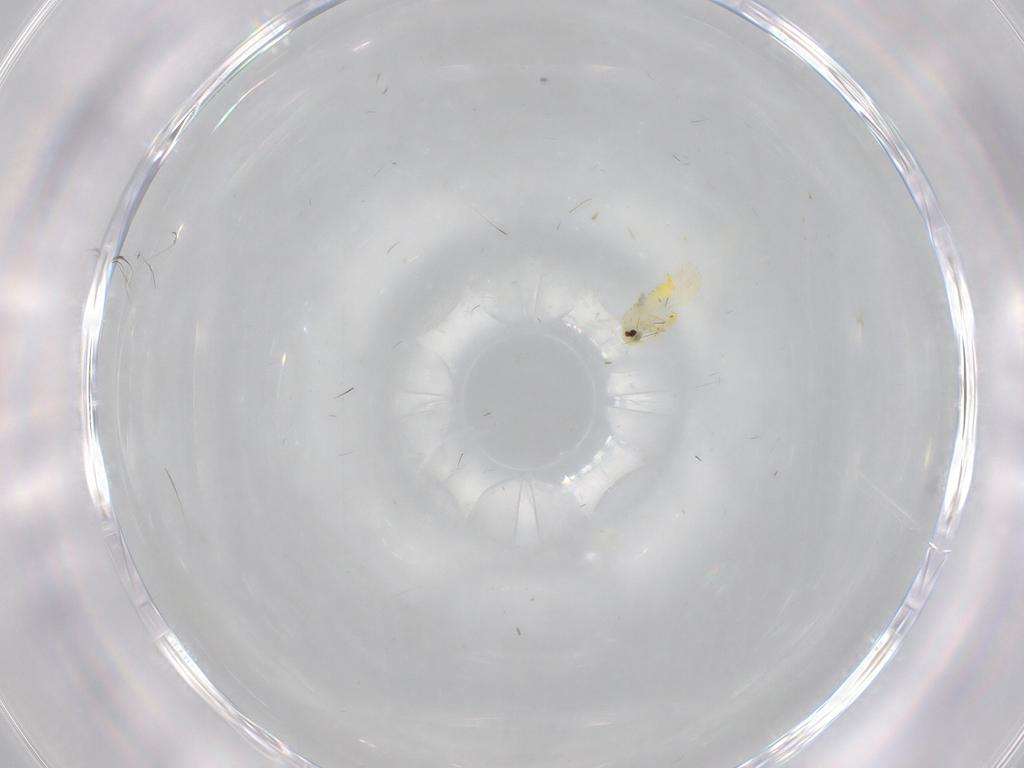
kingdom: Animalia
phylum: Arthropoda
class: Insecta
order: Hemiptera
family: Cicadellidae
